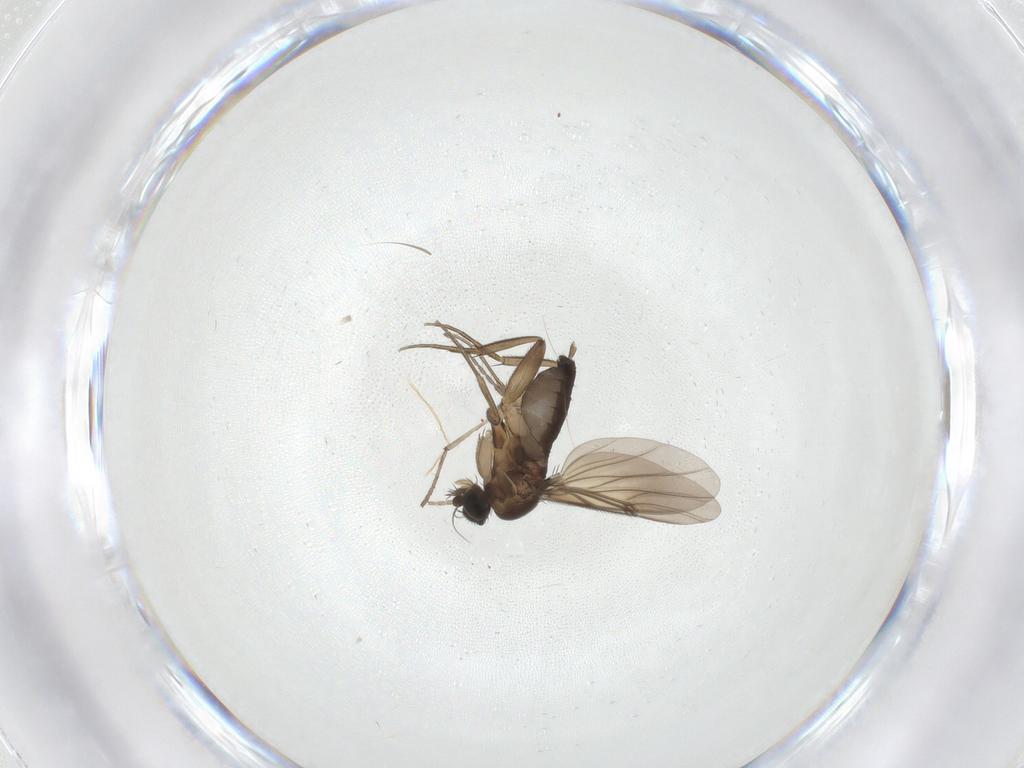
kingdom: Animalia
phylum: Arthropoda
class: Insecta
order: Diptera
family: Phoridae
